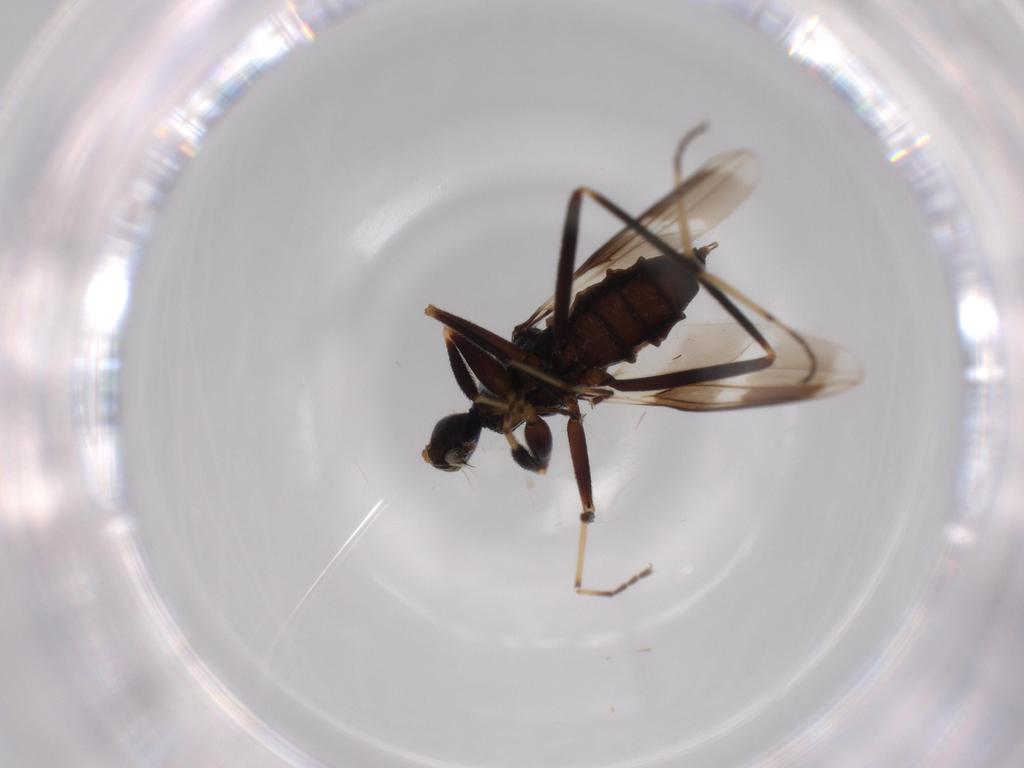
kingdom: Animalia
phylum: Arthropoda
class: Insecta
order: Diptera
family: Hybotidae
